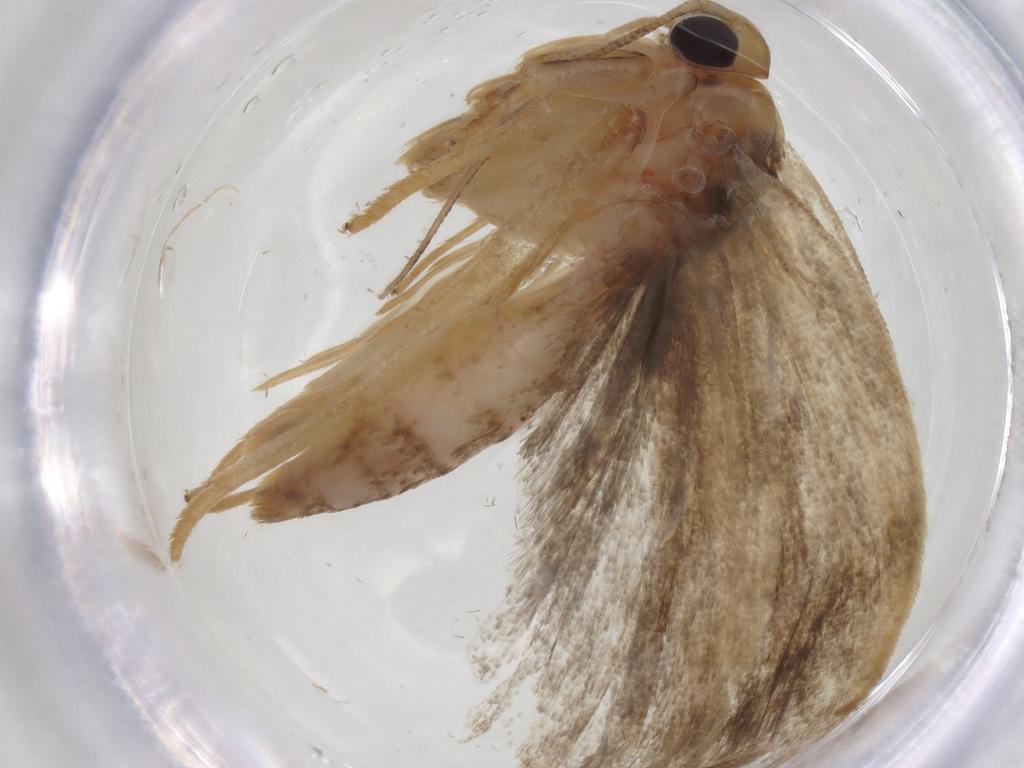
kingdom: Animalia
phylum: Arthropoda
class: Insecta
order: Lepidoptera
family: Depressariidae
